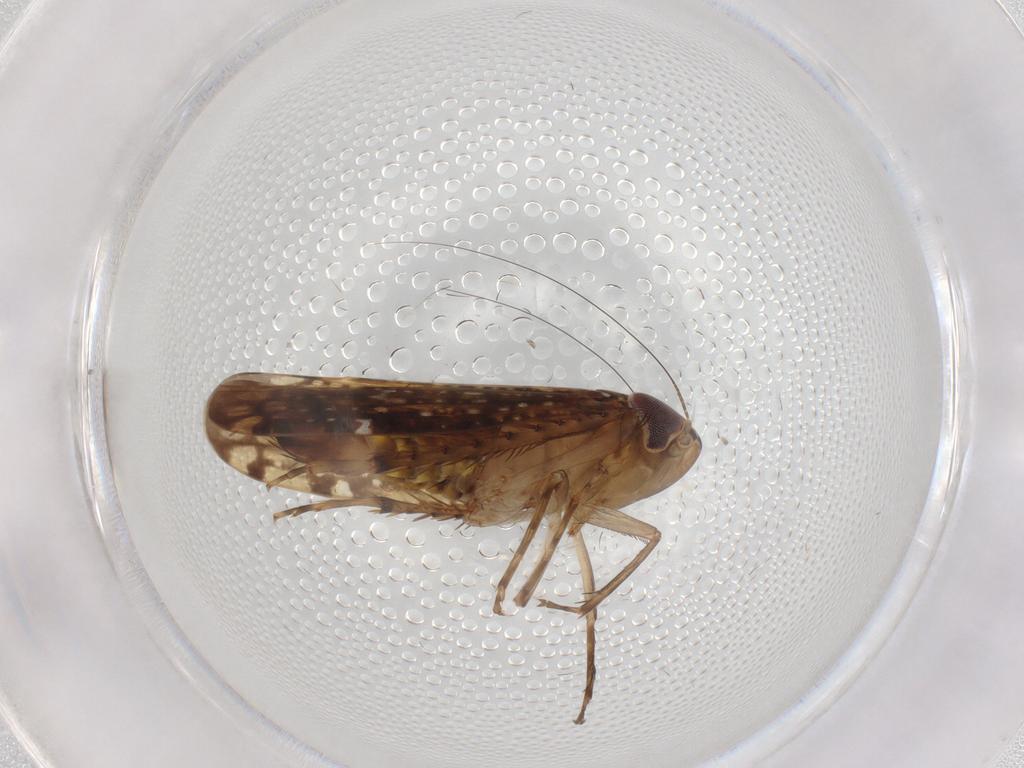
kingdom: Animalia
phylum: Arthropoda
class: Insecta
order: Hemiptera
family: Cicadellidae
